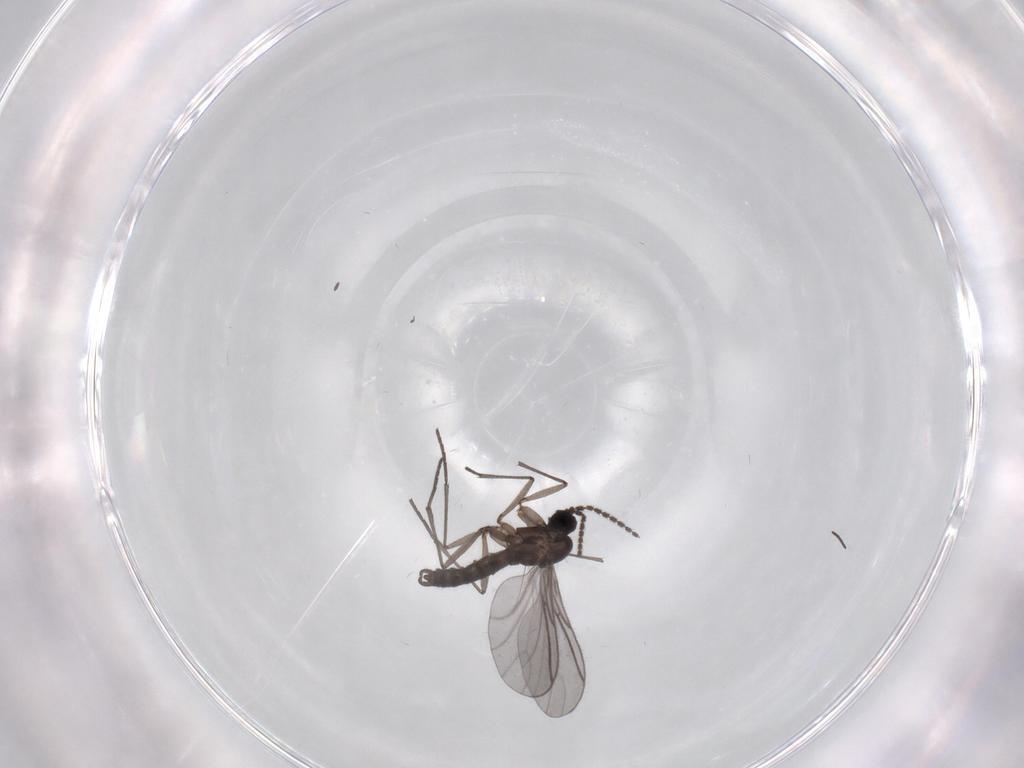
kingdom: Animalia
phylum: Arthropoda
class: Insecta
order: Diptera
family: Sciaridae
